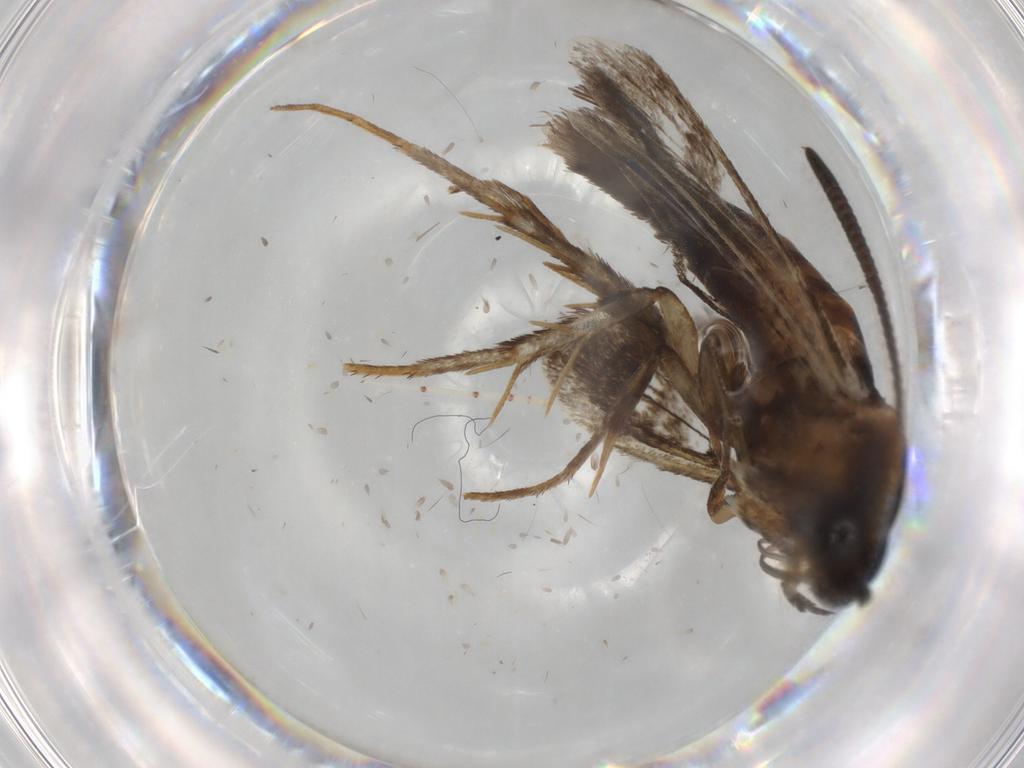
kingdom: Animalia
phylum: Arthropoda
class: Insecta
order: Lepidoptera
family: Sesiidae
